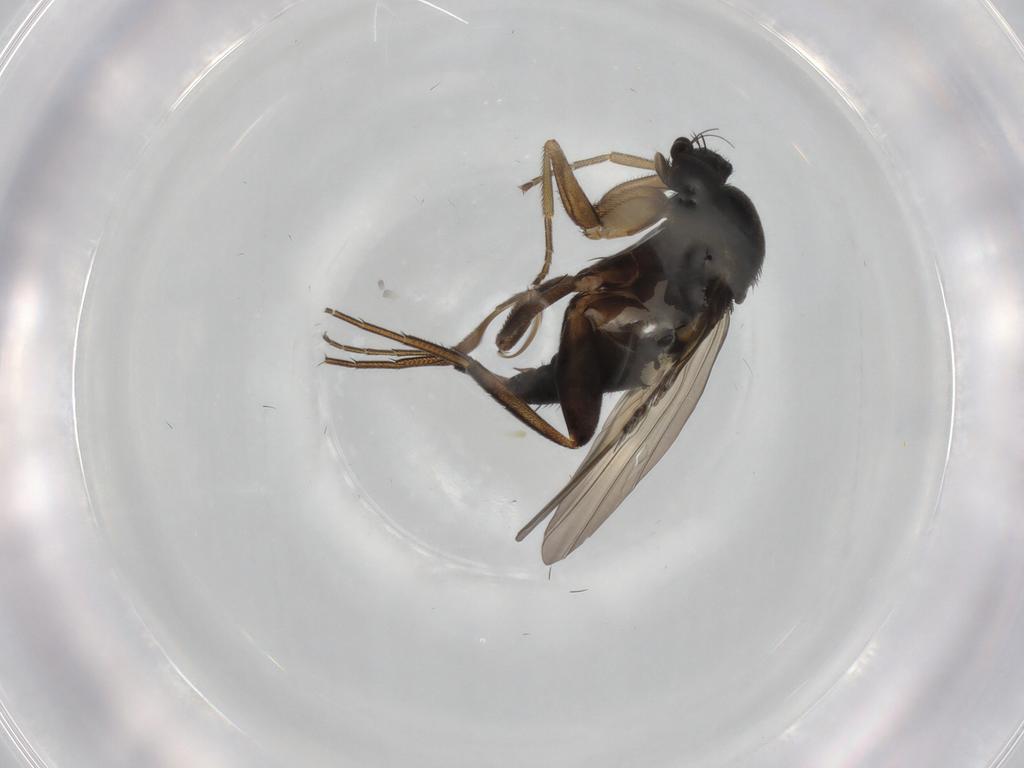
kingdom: Animalia
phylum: Arthropoda
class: Insecta
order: Diptera
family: Phoridae
